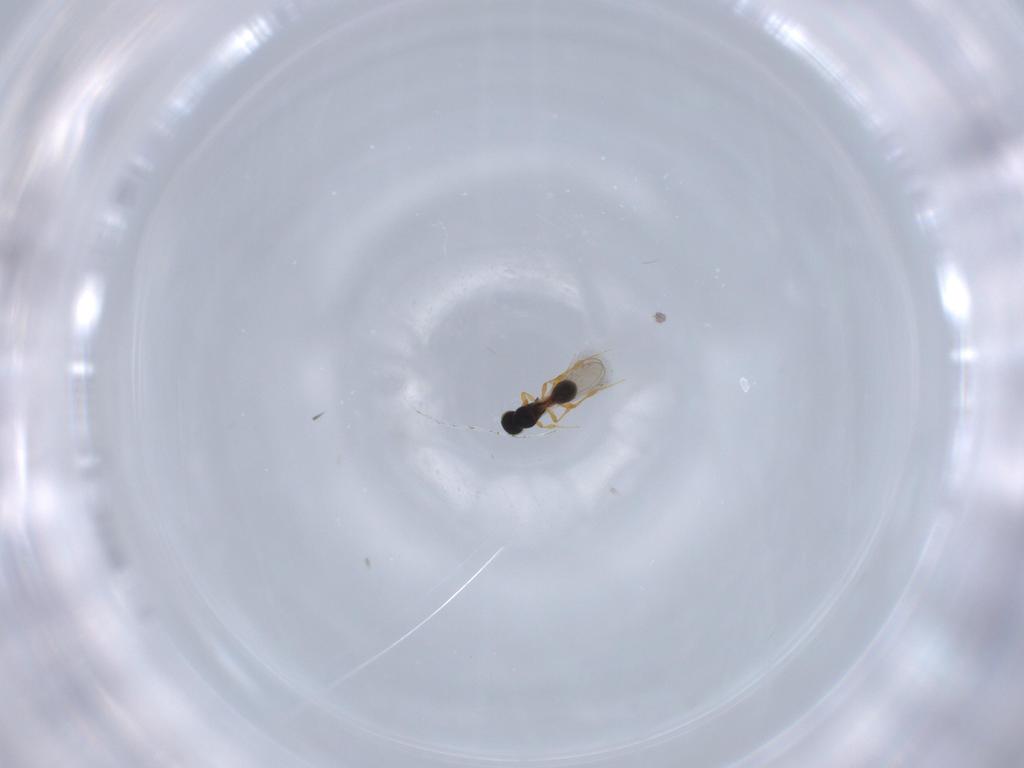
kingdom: Animalia
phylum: Arthropoda
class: Insecta
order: Hymenoptera
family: Platygastridae
